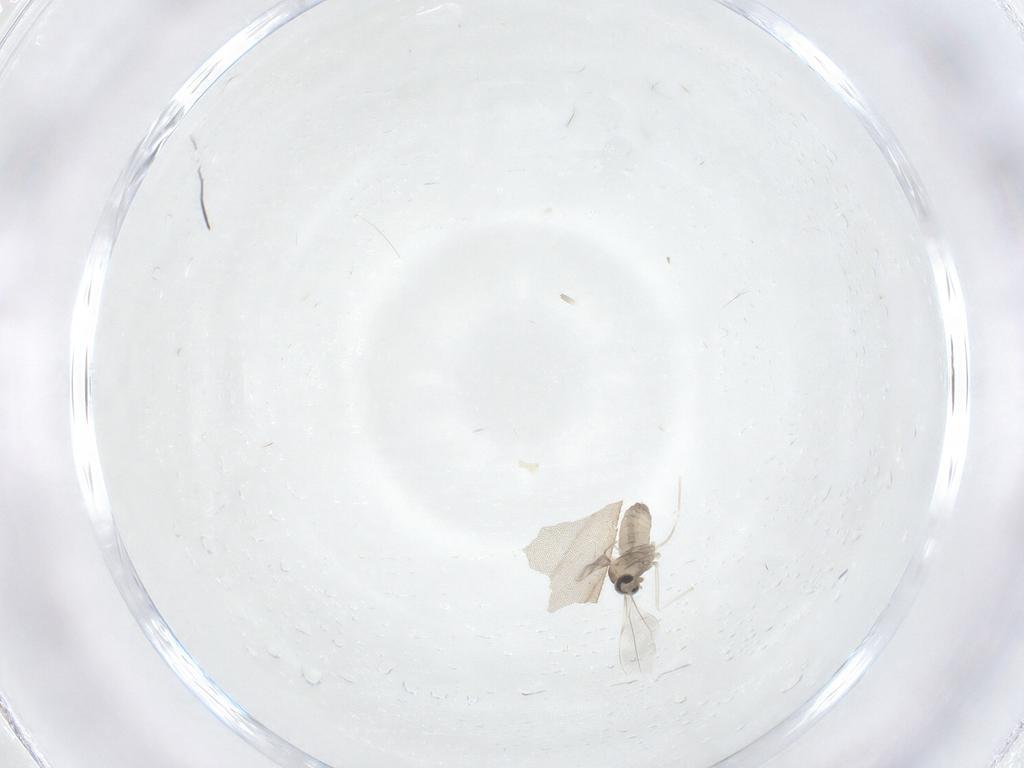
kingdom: Animalia
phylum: Arthropoda
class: Insecta
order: Diptera
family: Cecidomyiidae
